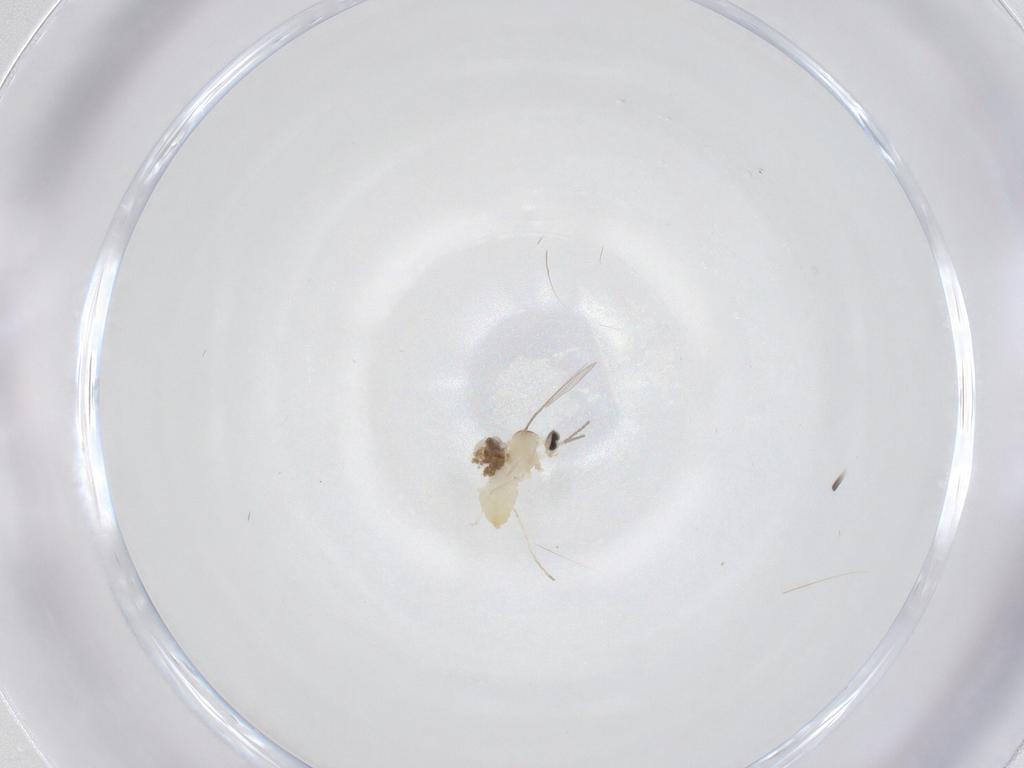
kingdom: Animalia
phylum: Arthropoda
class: Insecta
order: Diptera
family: Cecidomyiidae
